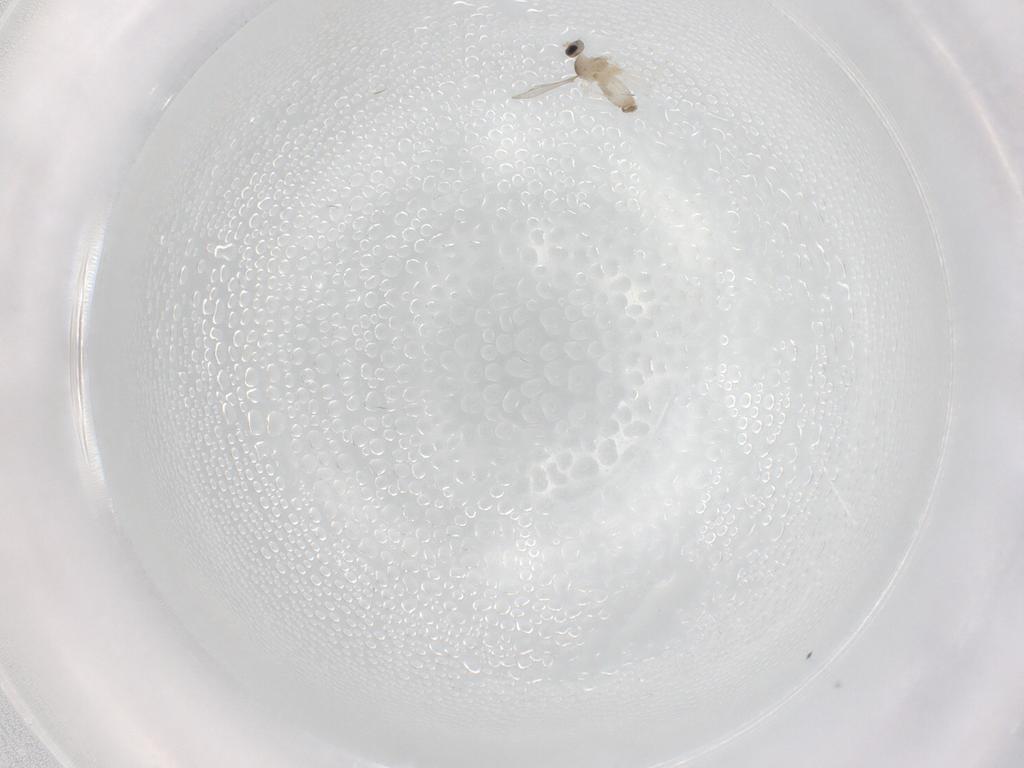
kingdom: Animalia
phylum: Arthropoda
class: Insecta
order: Diptera
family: Cecidomyiidae
